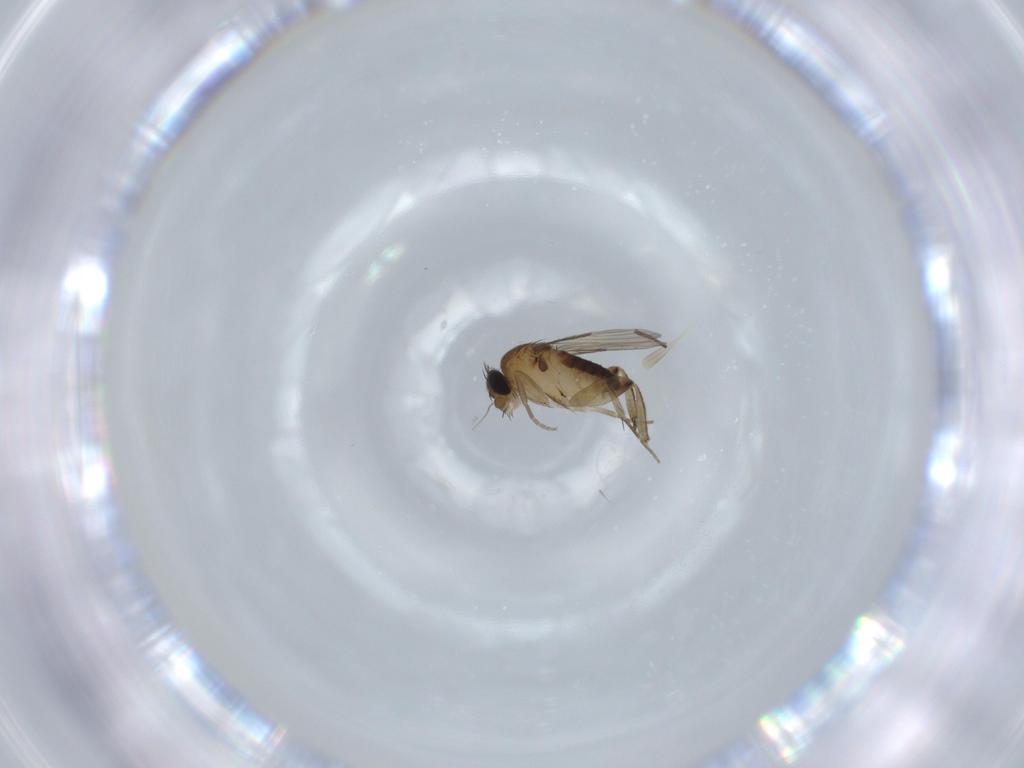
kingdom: Animalia
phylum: Arthropoda
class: Insecta
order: Diptera
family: Phoridae
